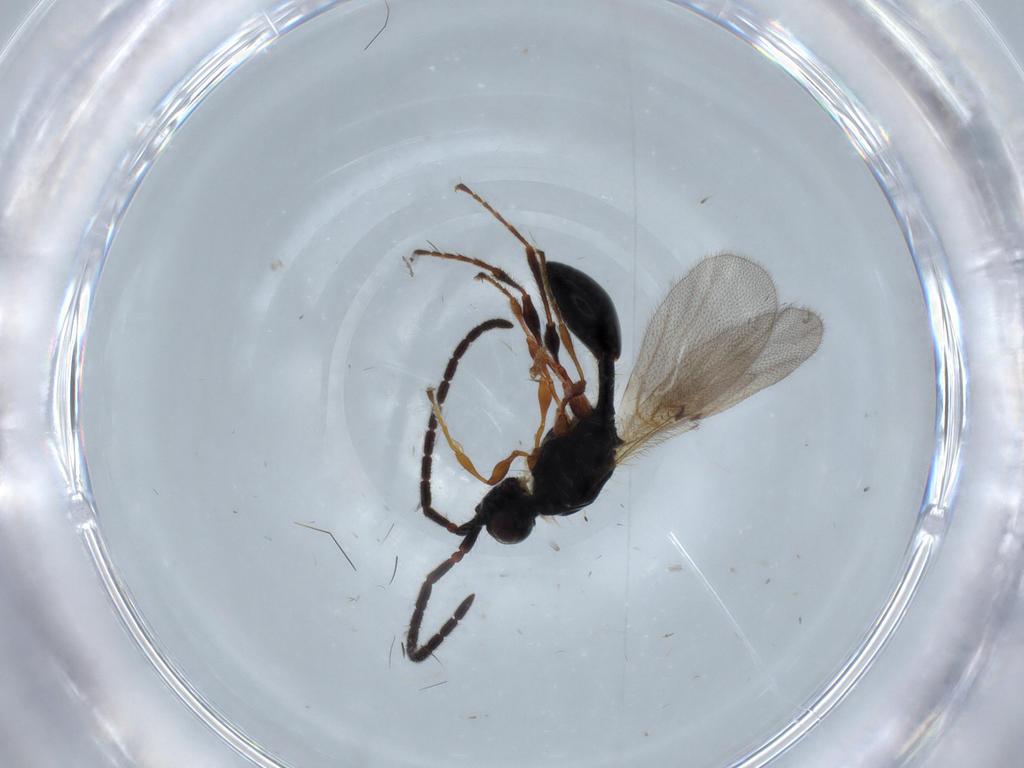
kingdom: Animalia
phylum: Arthropoda
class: Insecta
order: Hymenoptera
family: Diapriidae
